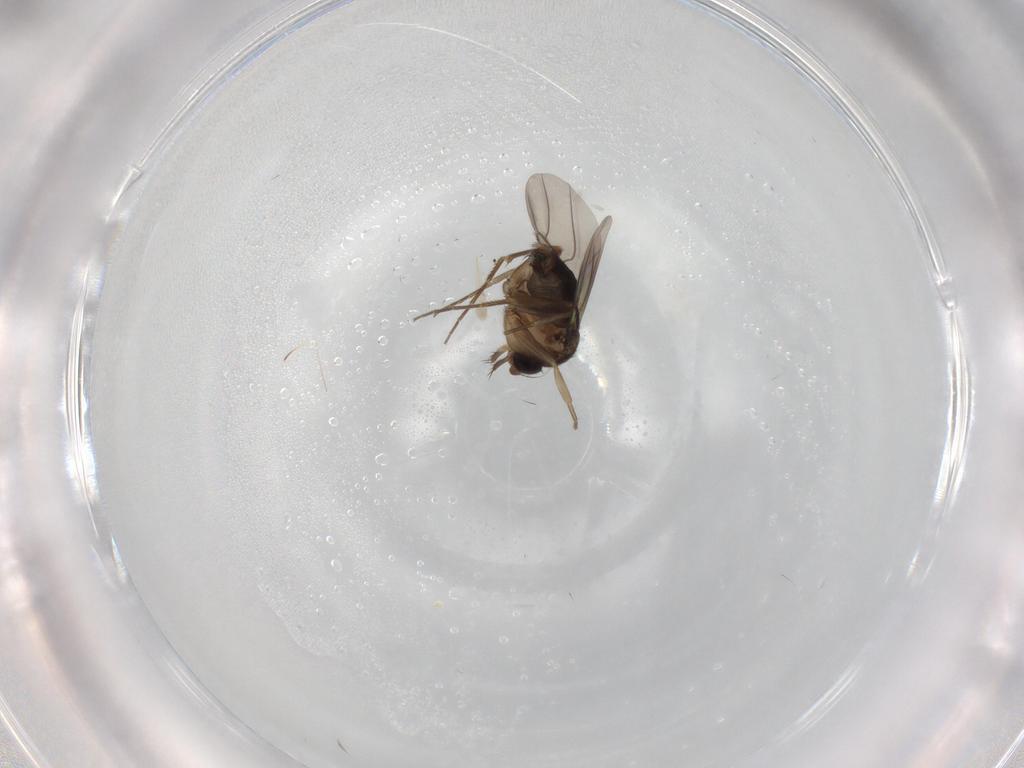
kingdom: Animalia
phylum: Arthropoda
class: Insecta
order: Diptera
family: Phoridae
